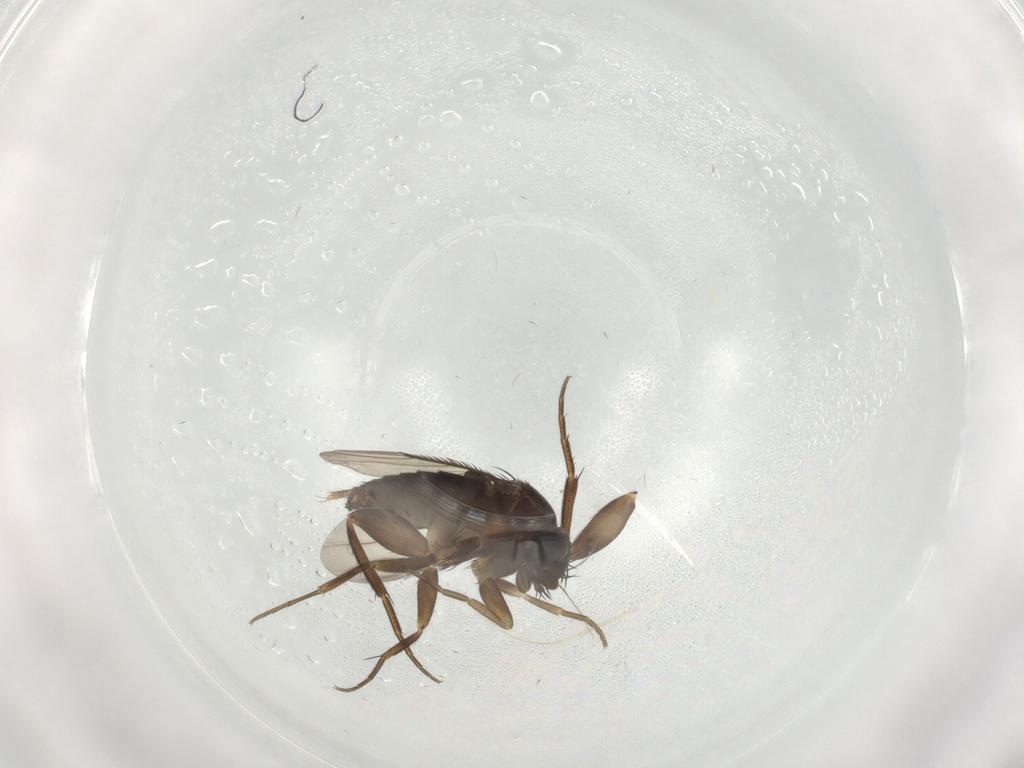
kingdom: Animalia
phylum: Arthropoda
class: Insecta
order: Diptera
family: Phoridae
